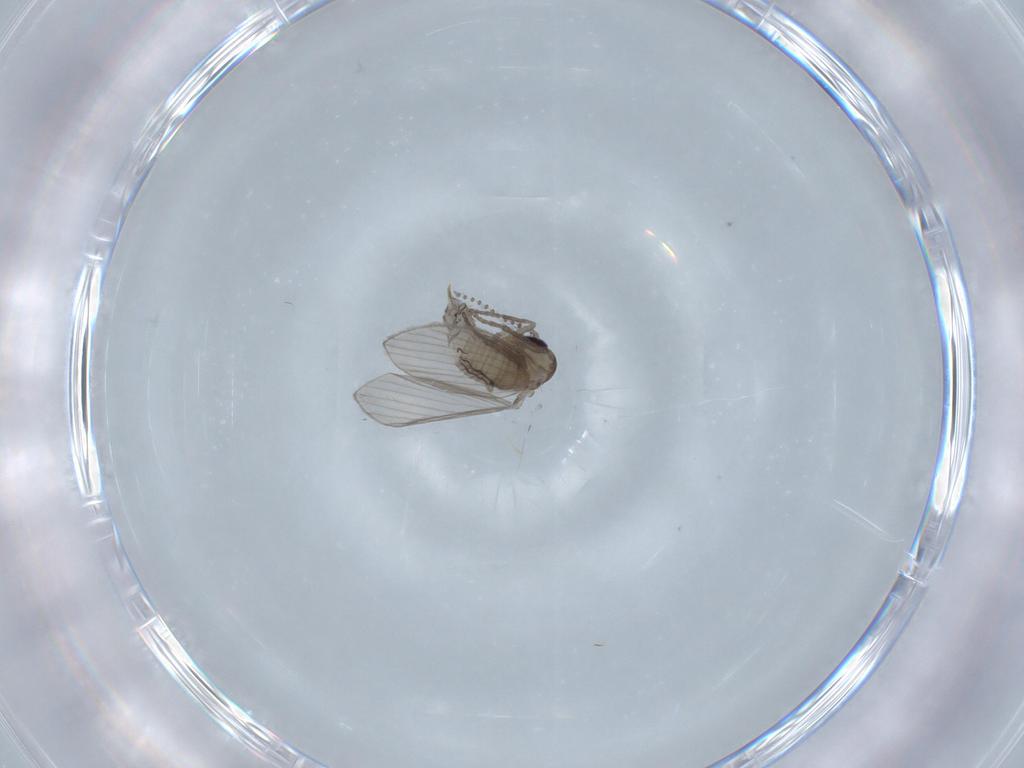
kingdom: Animalia
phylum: Arthropoda
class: Insecta
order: Diptera
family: Psychodidae
